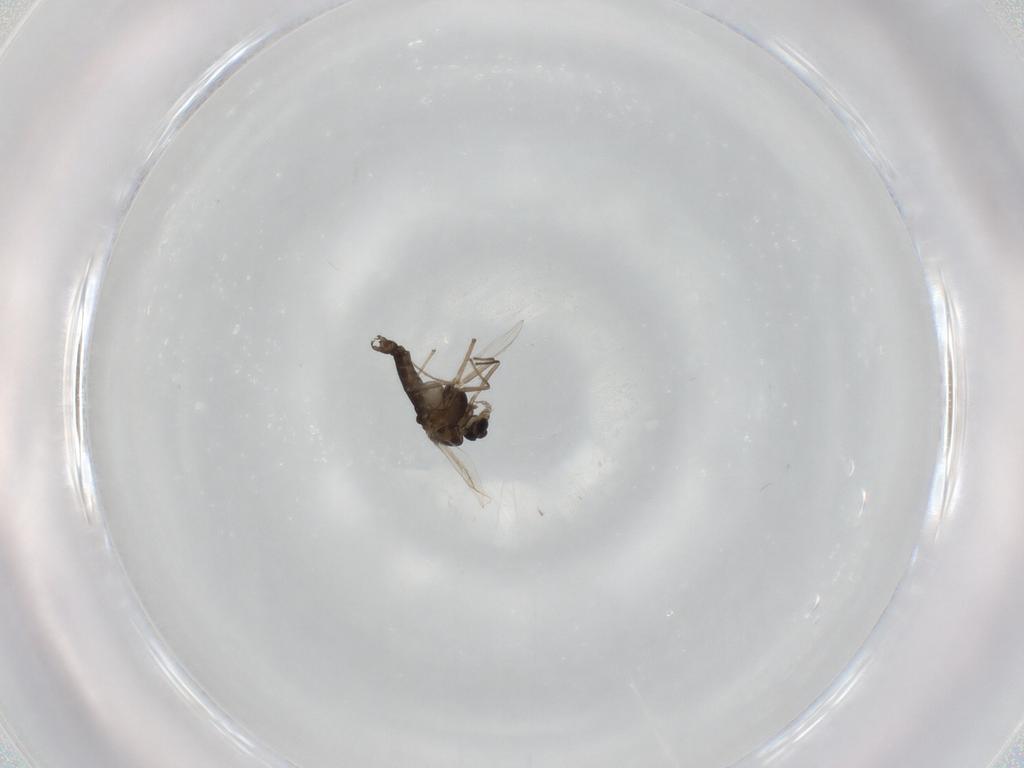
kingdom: Animalia
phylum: Arthropoda
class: Insecta
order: Diptera
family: Chironomidae
